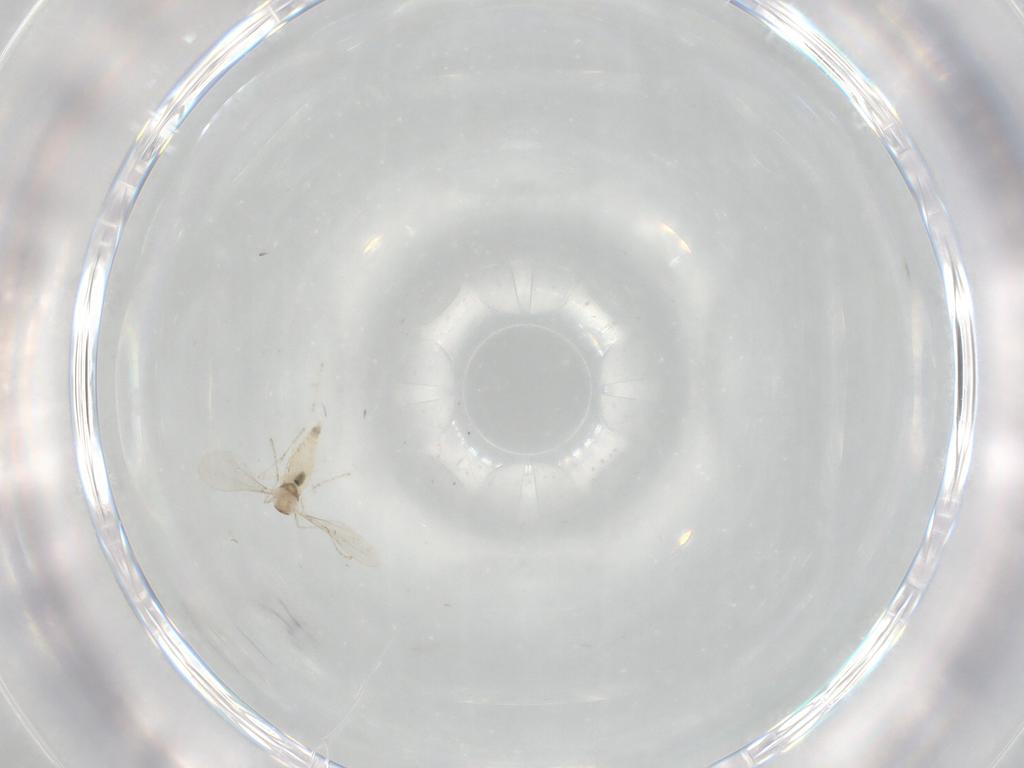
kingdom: Animalia
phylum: Arthropoda
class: Insecta
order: Diptera
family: Cecidomyiidae
